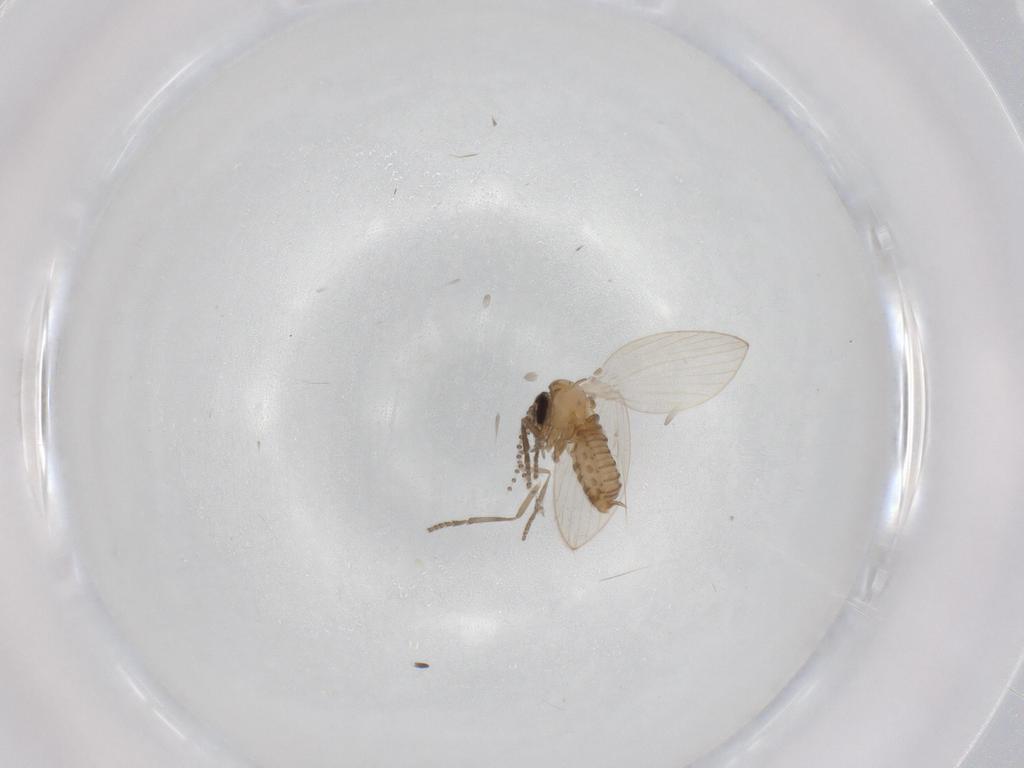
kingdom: Animalia
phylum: Arthropoda
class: Insecta
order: Diptera
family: Psychodidae
